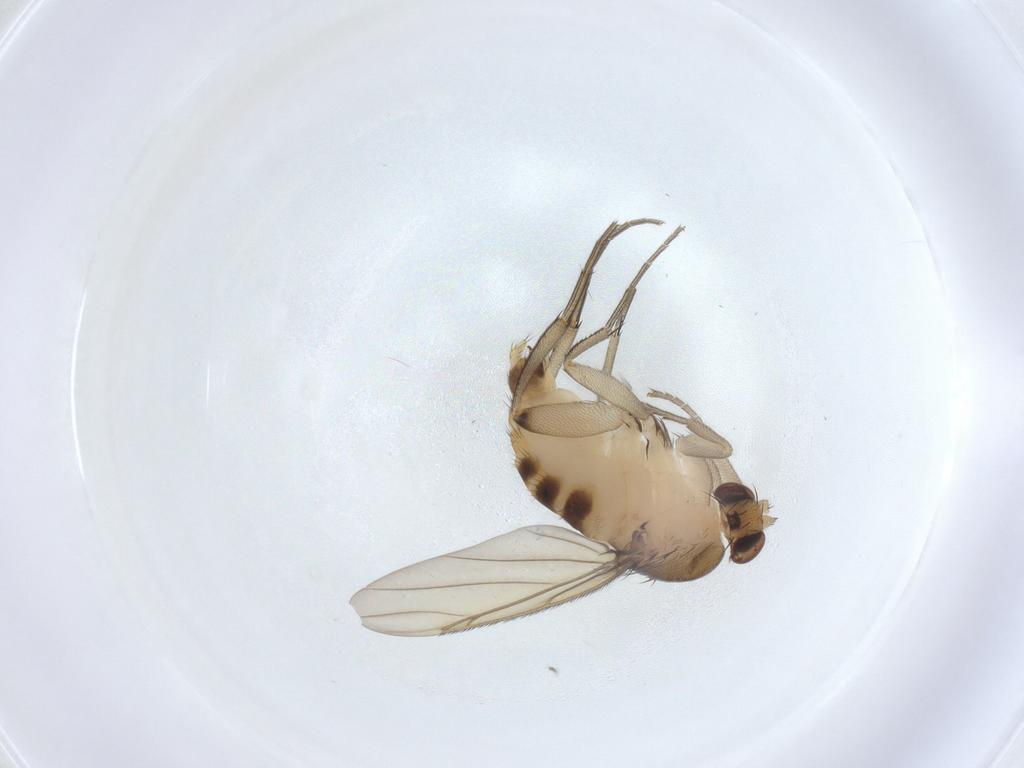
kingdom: Animalia
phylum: Arthropoda
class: Insecta
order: Diptera
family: Phoridae
